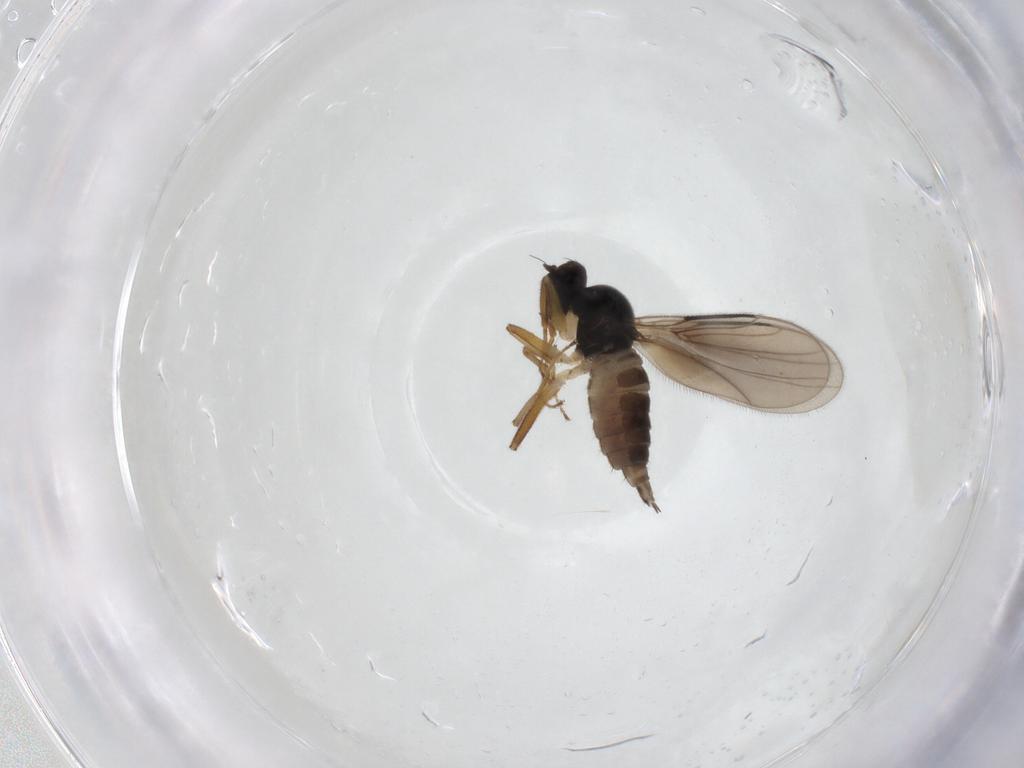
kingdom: Animalia
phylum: Arthropoda
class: Insecta
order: Diptera
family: Hybotidae
